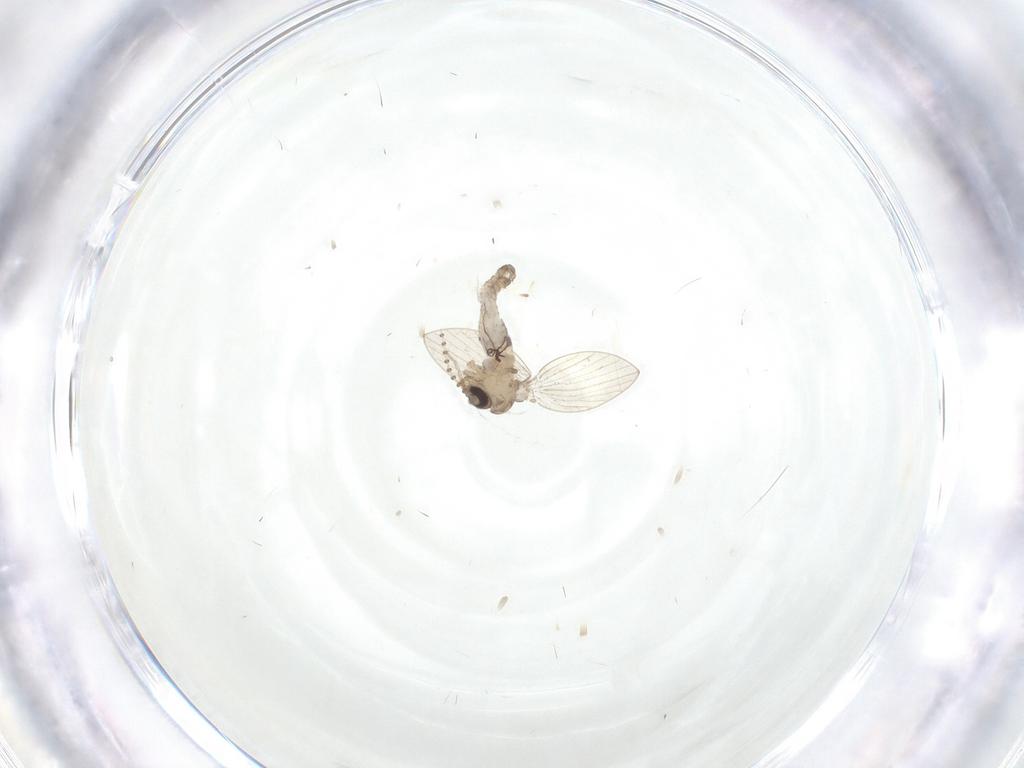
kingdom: Animalia
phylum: Arthropoda
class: Insecta
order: Diptera
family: Psychodidae
